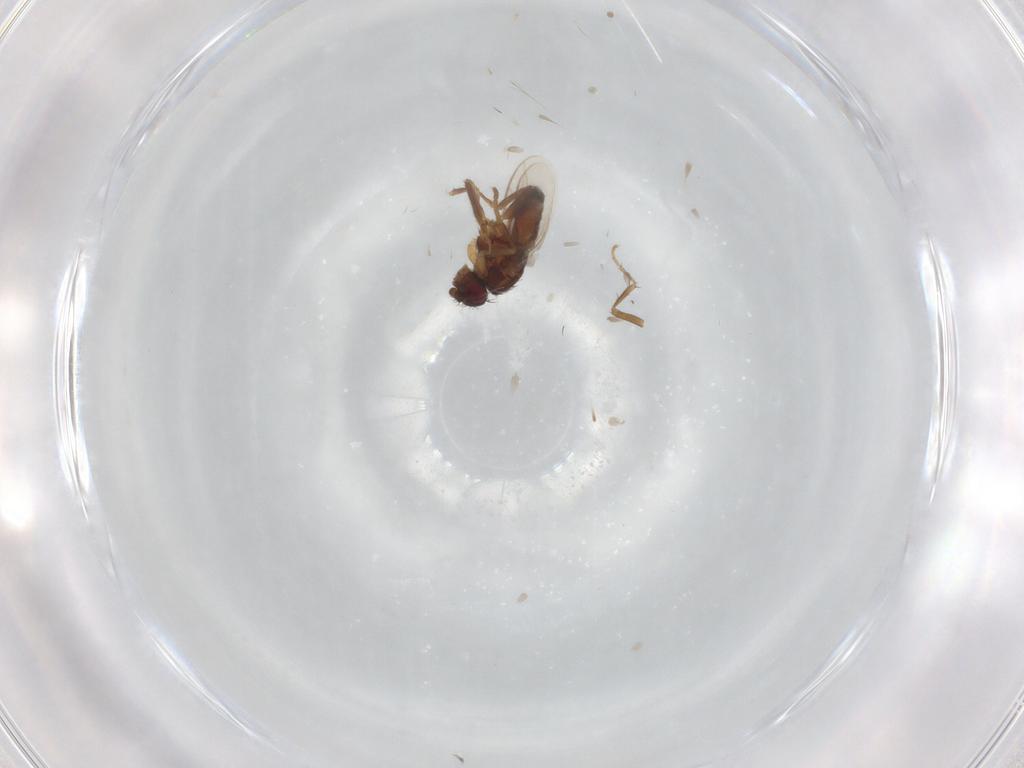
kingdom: Animalia
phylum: Arthropoda
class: Insecta
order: Diptera
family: Sphaeroceridae
